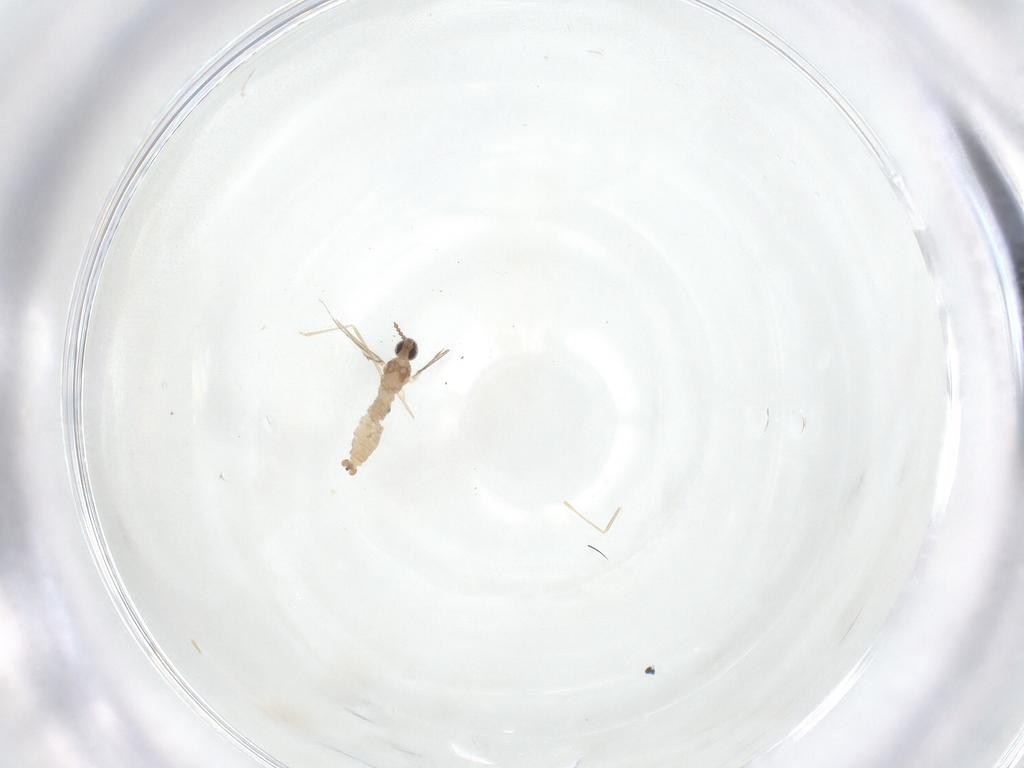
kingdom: Animalia
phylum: Arthropoda
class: Insecta
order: Diptera
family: Cecidomyiidae
